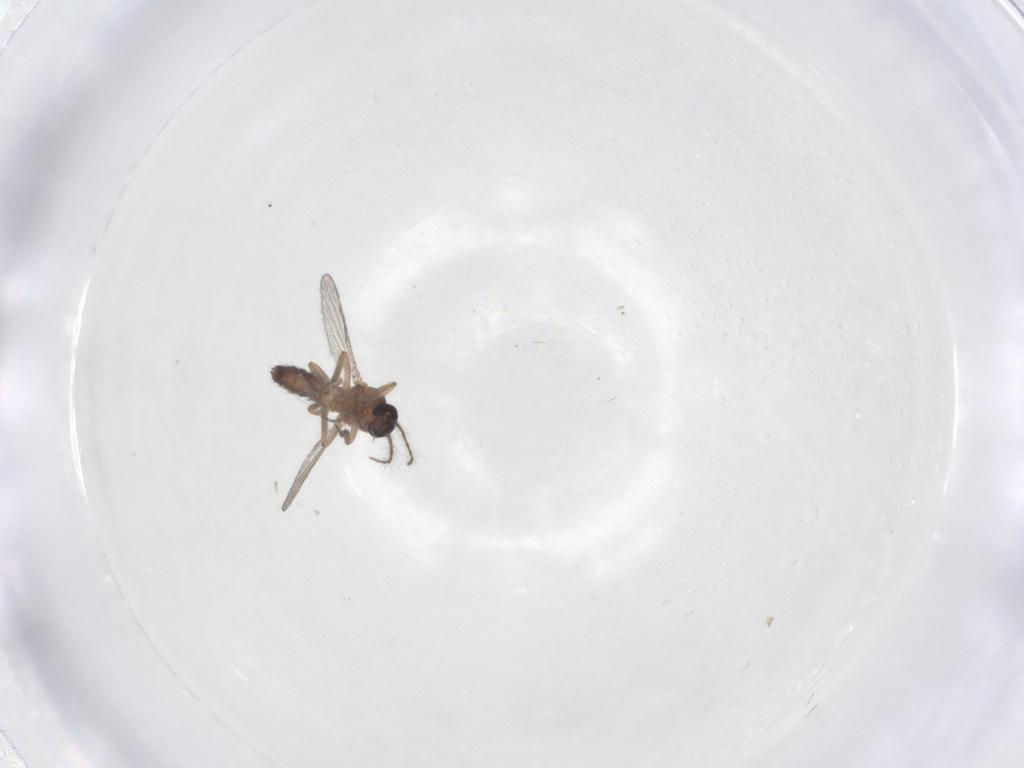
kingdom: Animalia
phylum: Arthropoda
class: Insecta
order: Diptera
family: Ceratopogonidae
